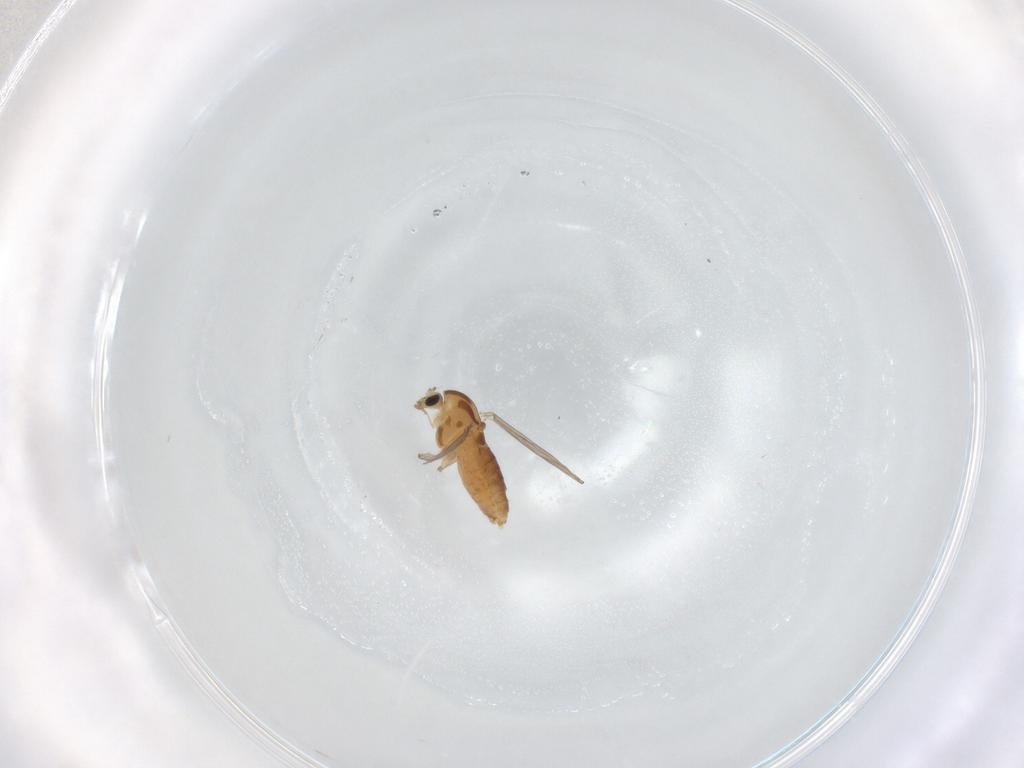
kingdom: Animalia
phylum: Arthropoda
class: Insecta
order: Diptera
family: Chironomidae
